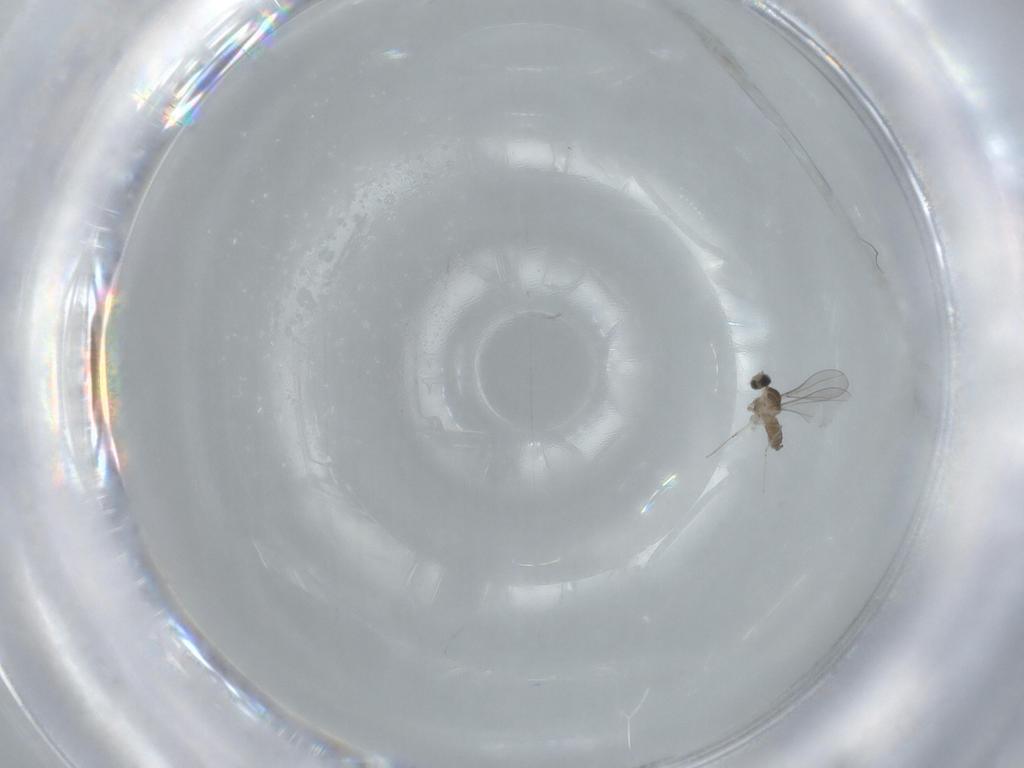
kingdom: Animalia
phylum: Arthropoda
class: Insecta
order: Diptera
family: Cecidomyiidae
